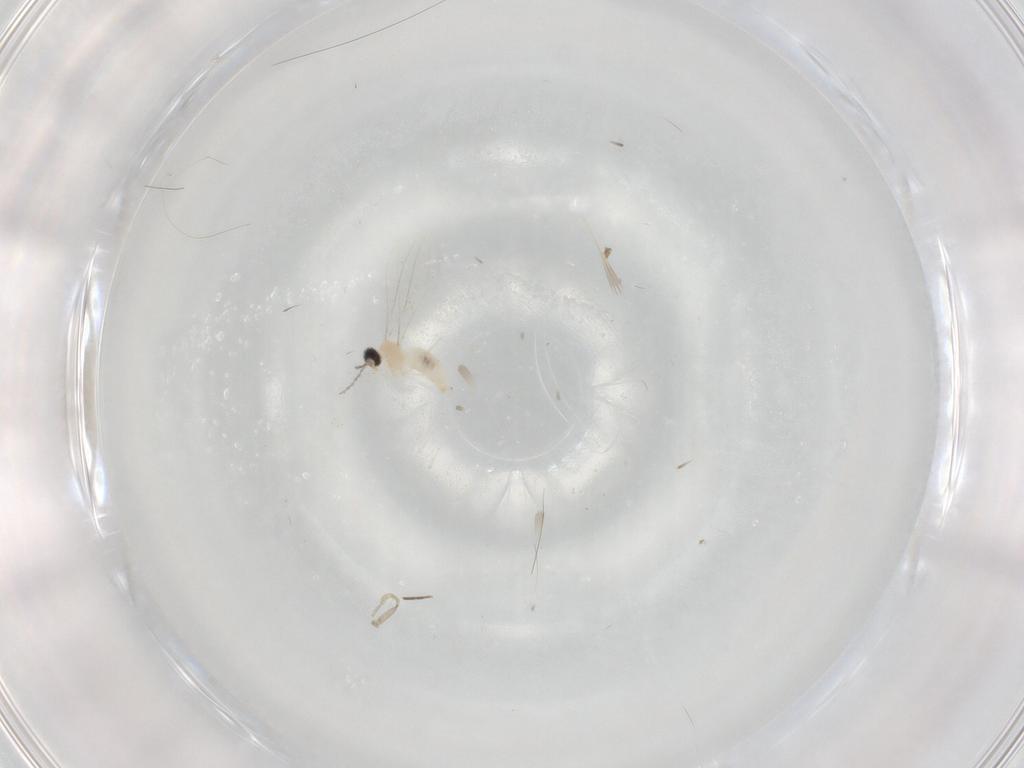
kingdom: Animalia
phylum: Arthropoda
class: Insecta
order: Diptera
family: Cecidomyiidae
